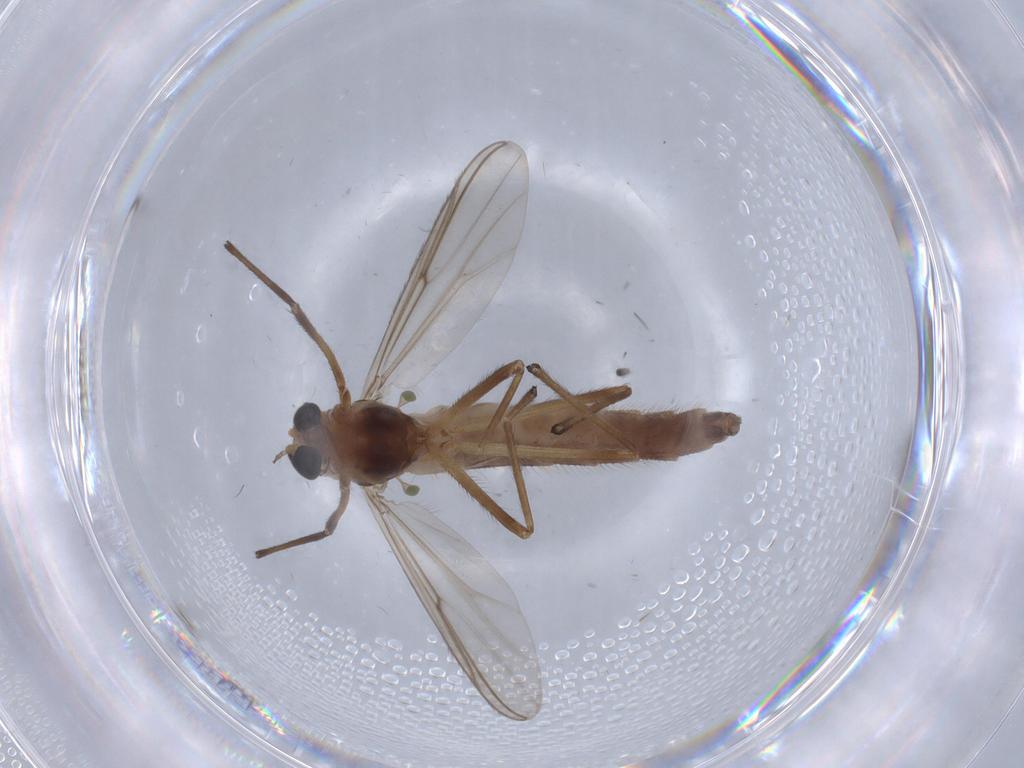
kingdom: Animalia
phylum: Arthropoda
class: Insecta
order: Diptera
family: Chironomidae
